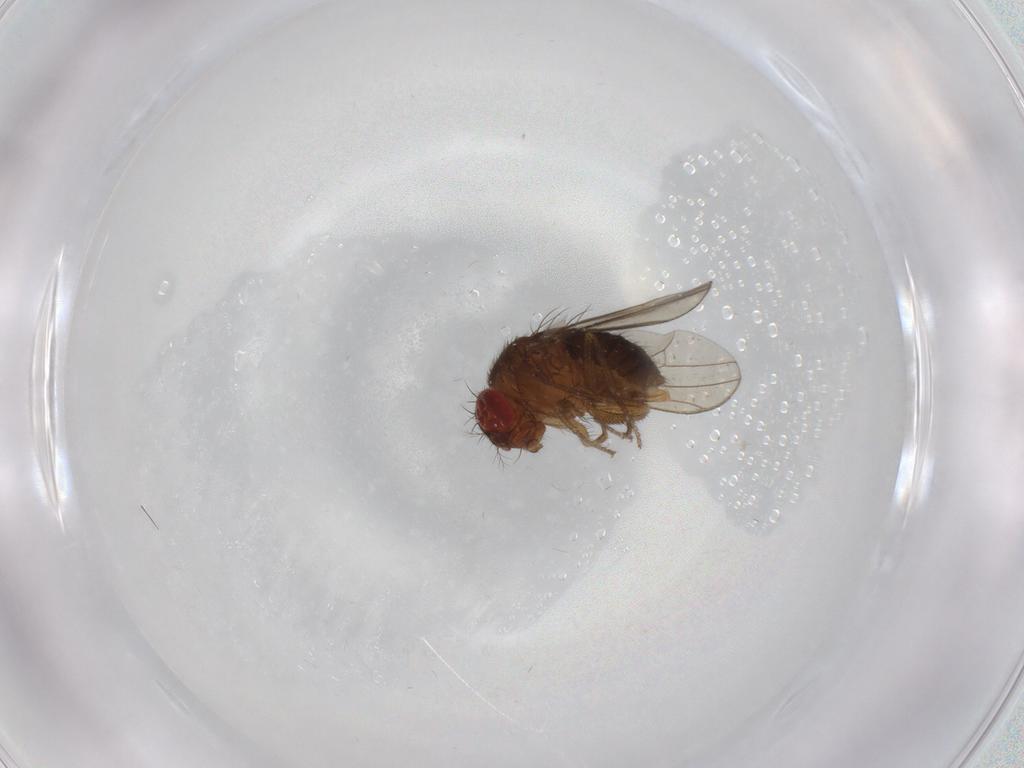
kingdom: Animalia
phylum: Arthropoda
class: Insecta
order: Diptera
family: Drosophilidae
